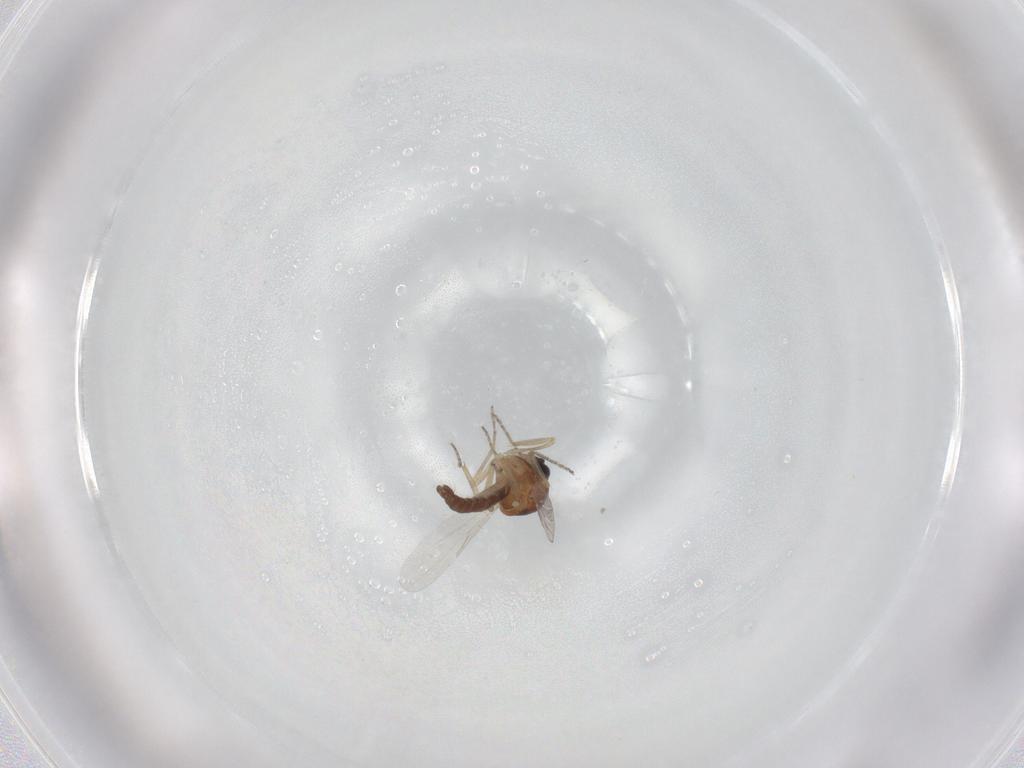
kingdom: Animalia
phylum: Arthropoda
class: Insecta
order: Diptera
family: Ceratopogonidae
